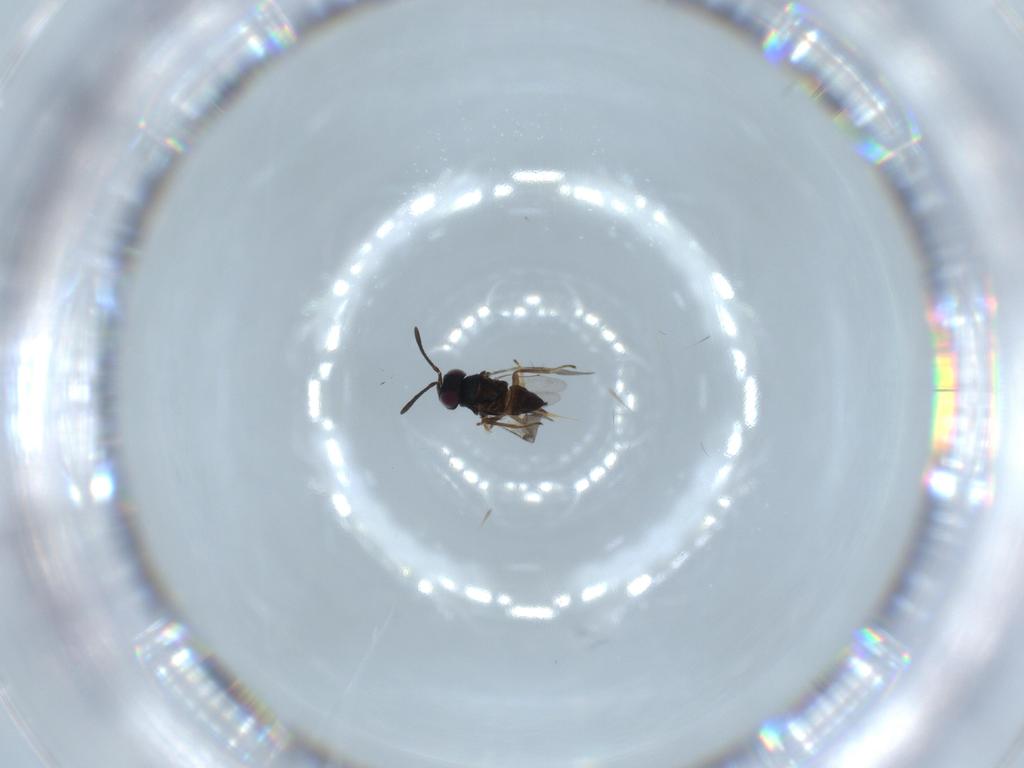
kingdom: Animalia
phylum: Arthropoda
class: Insecta
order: Hymenoptera
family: Encyrtidae
